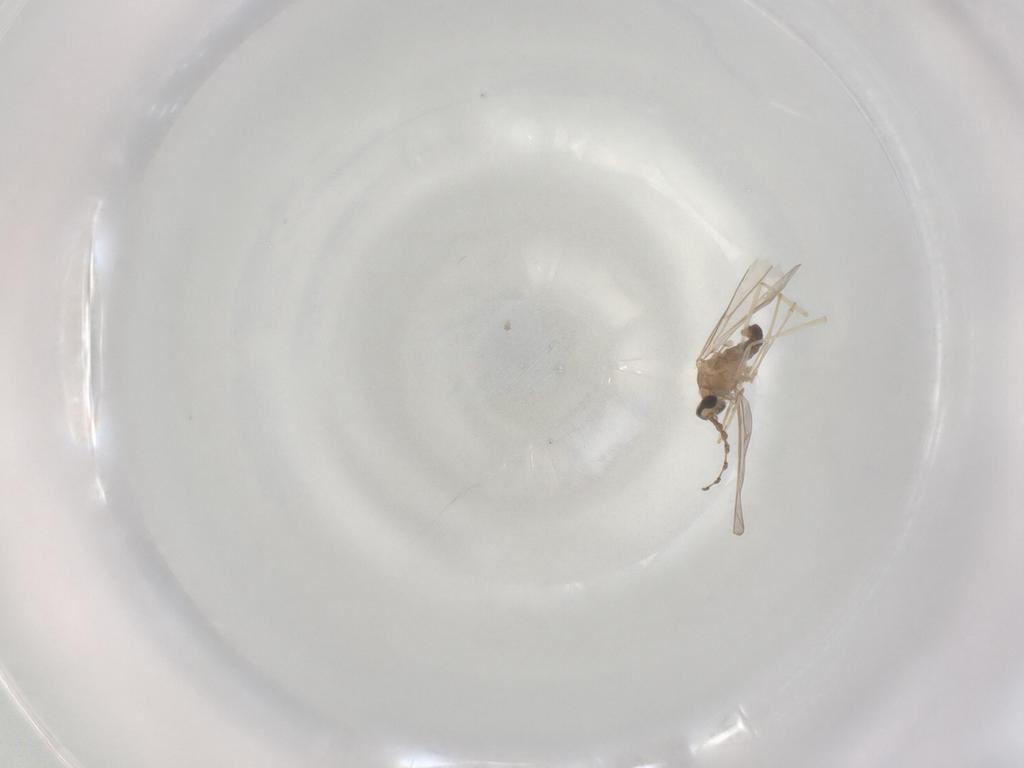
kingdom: Animalia
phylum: Arthropoda
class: Insecta
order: Diptera
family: Cecidomyiidae
